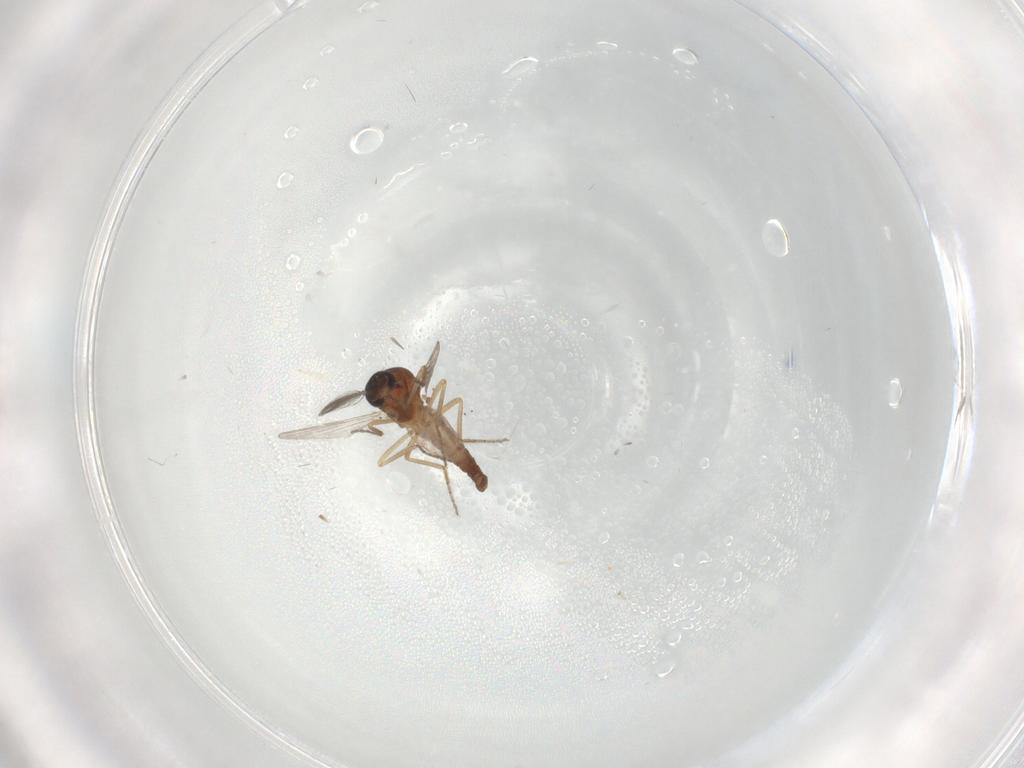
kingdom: Animalia
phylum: Arthropoda
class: Insecta
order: Diptera
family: Ceratopogonidae
